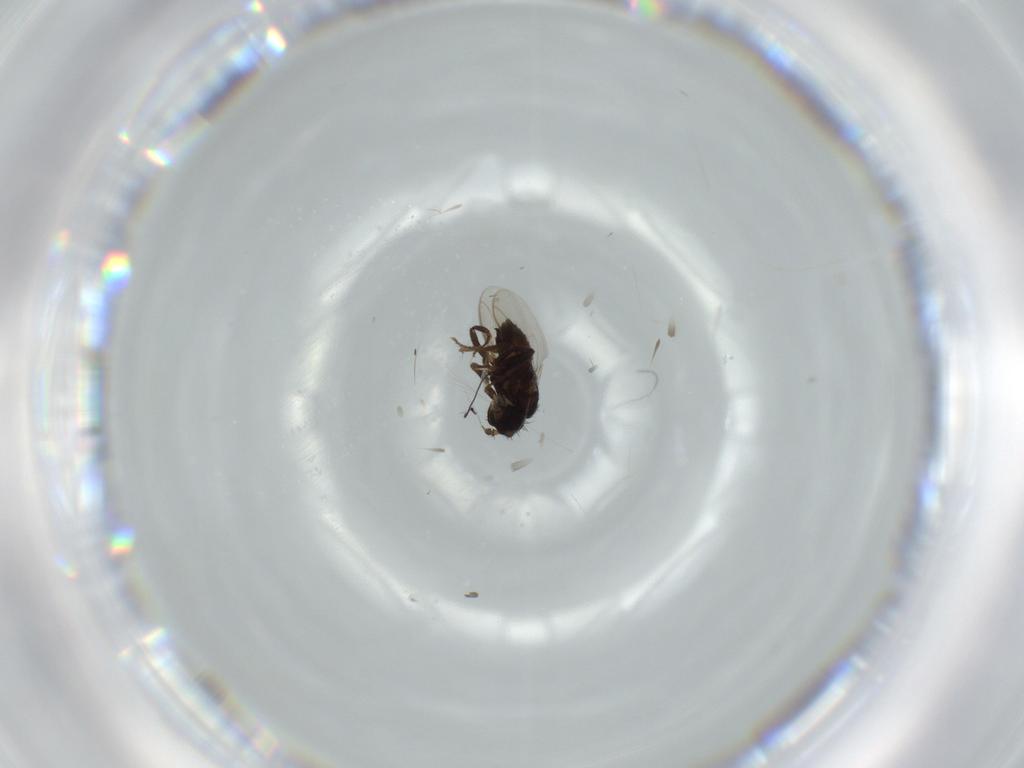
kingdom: Animalia
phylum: Arthropoda
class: Insecta
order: Diptera
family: Sphaeroceridae
